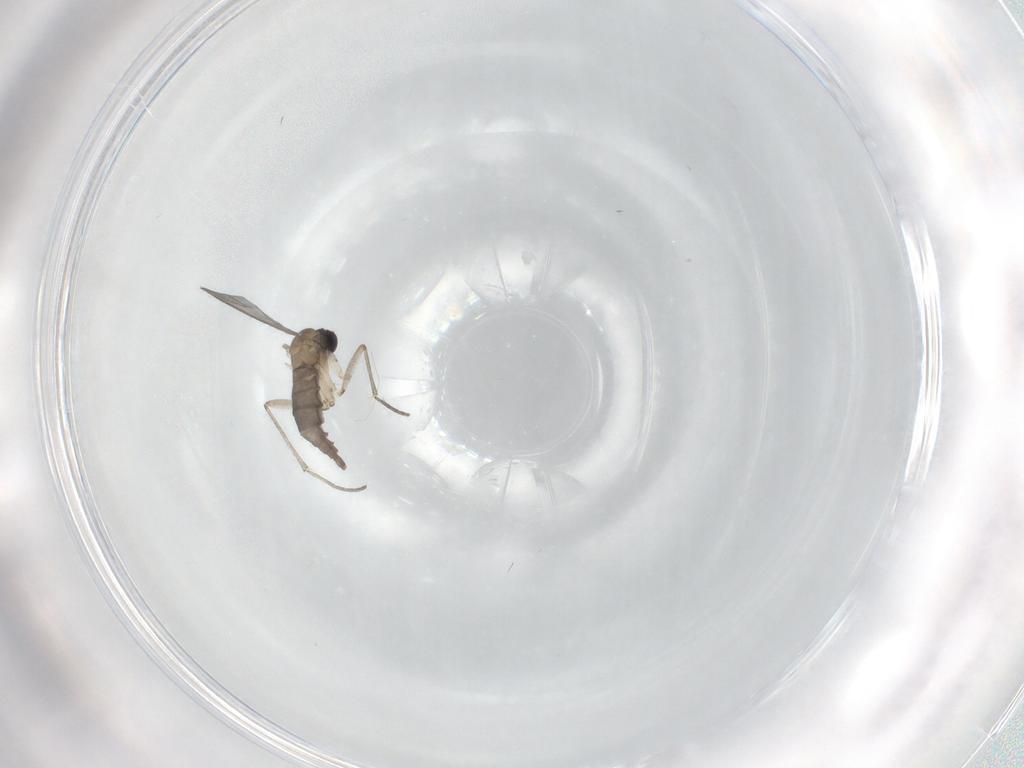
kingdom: Animalia
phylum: Arthropoda
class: Insecta
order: Diptera
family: Sciaridae
